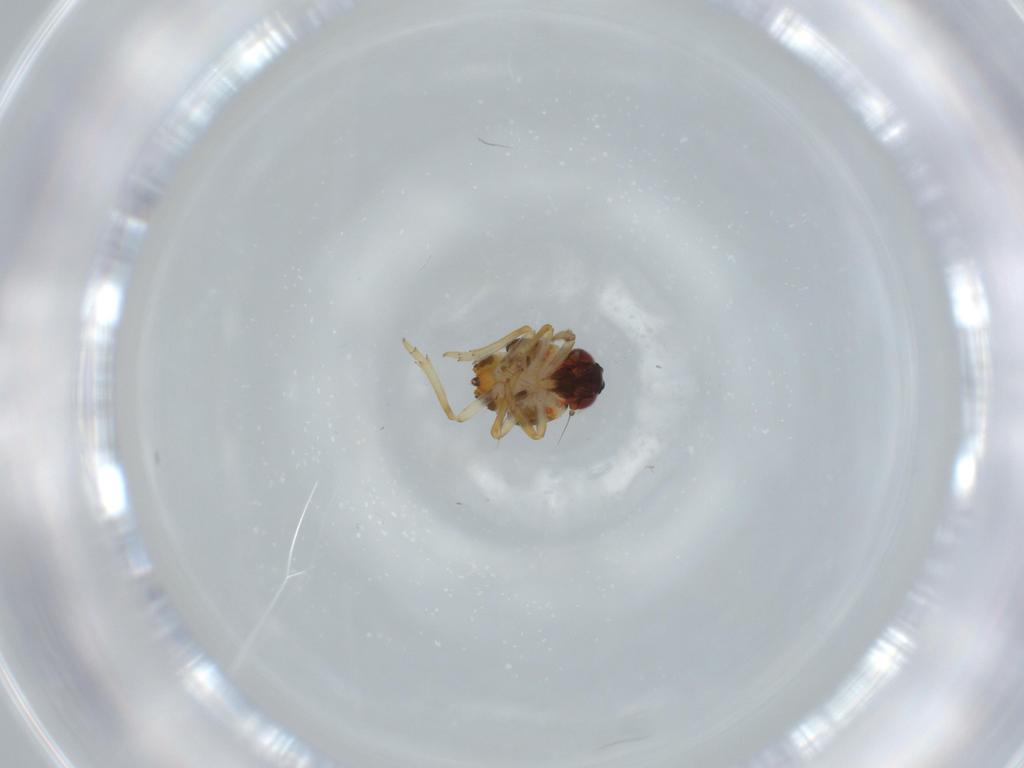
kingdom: Animalia
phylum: Arthropoda
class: Insecta
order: Hemiptera
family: Issidae
